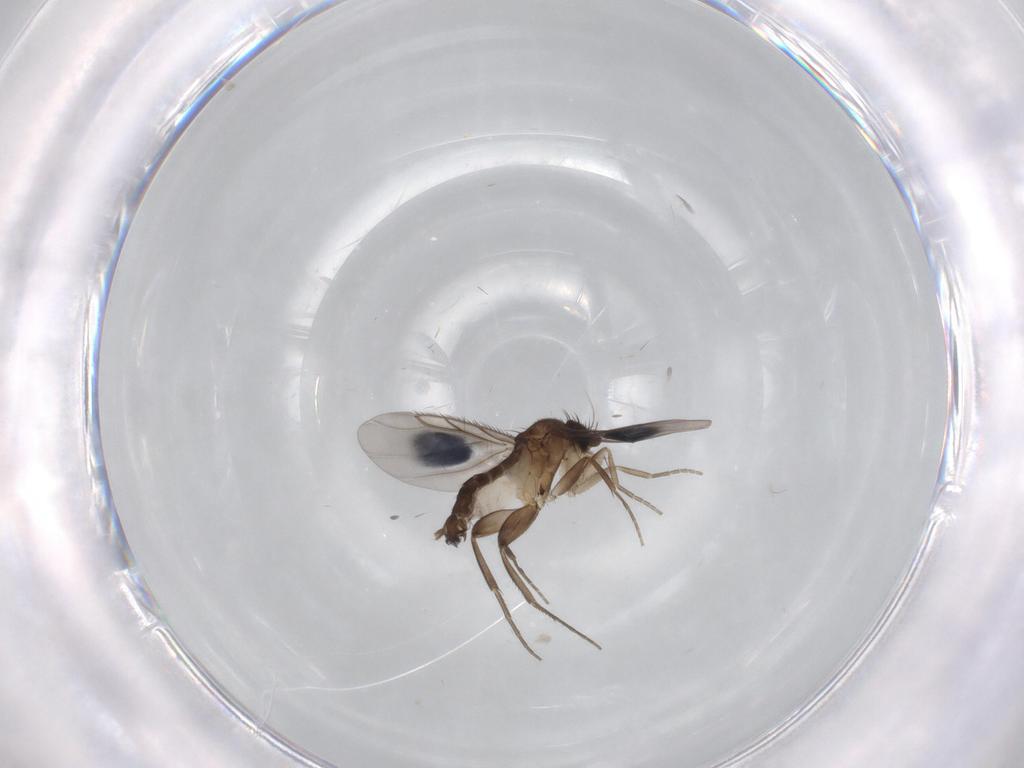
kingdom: Animalia
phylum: Arthropoda
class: Insecta
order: Diptera
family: Phoridae
